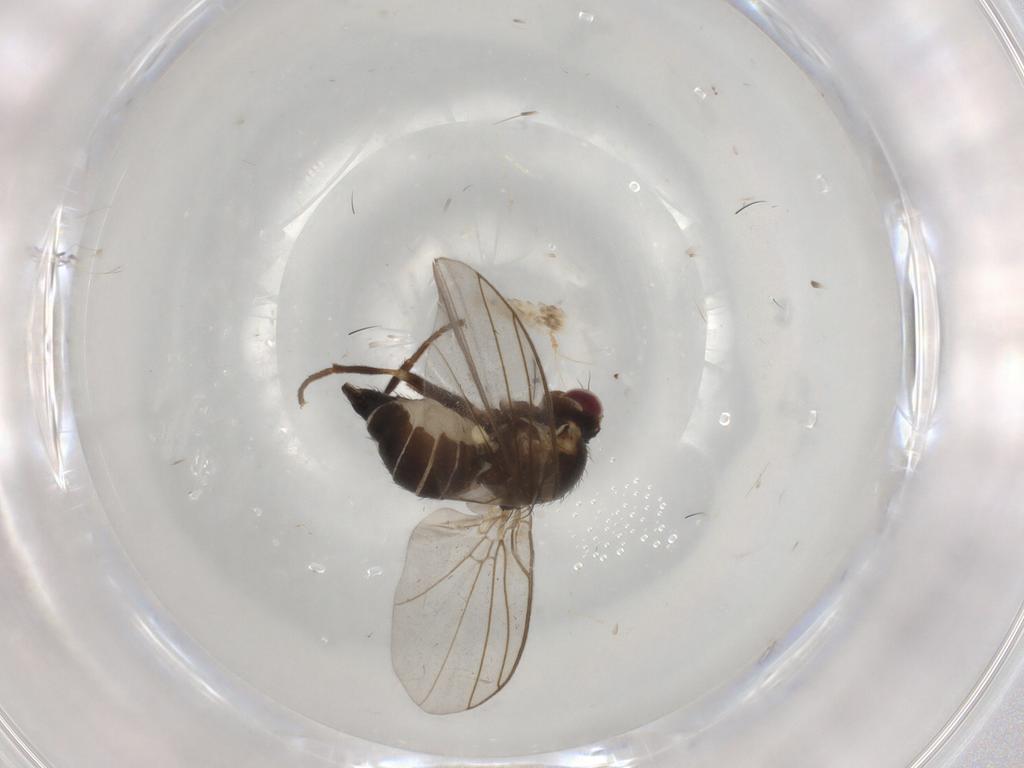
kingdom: Animalia
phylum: Arthropoda
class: Insecta
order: Diptera
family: Agromyzidae
